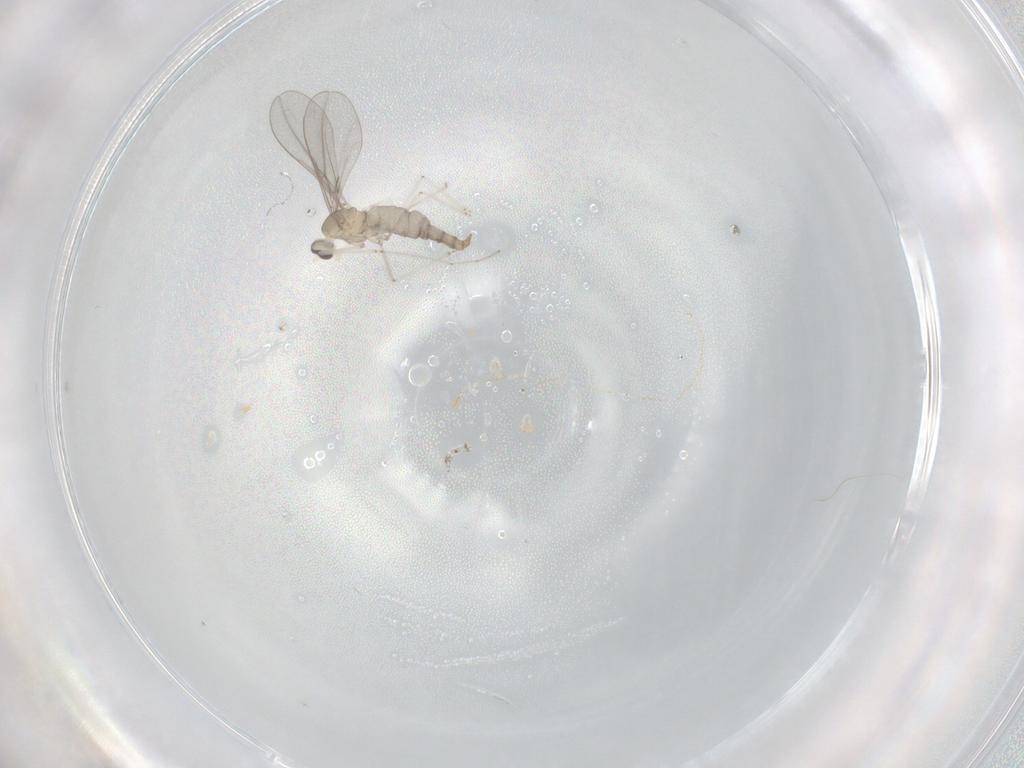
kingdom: Animalia
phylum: Arthropoda
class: Insecta
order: Diptera
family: Cecidomyiidae
